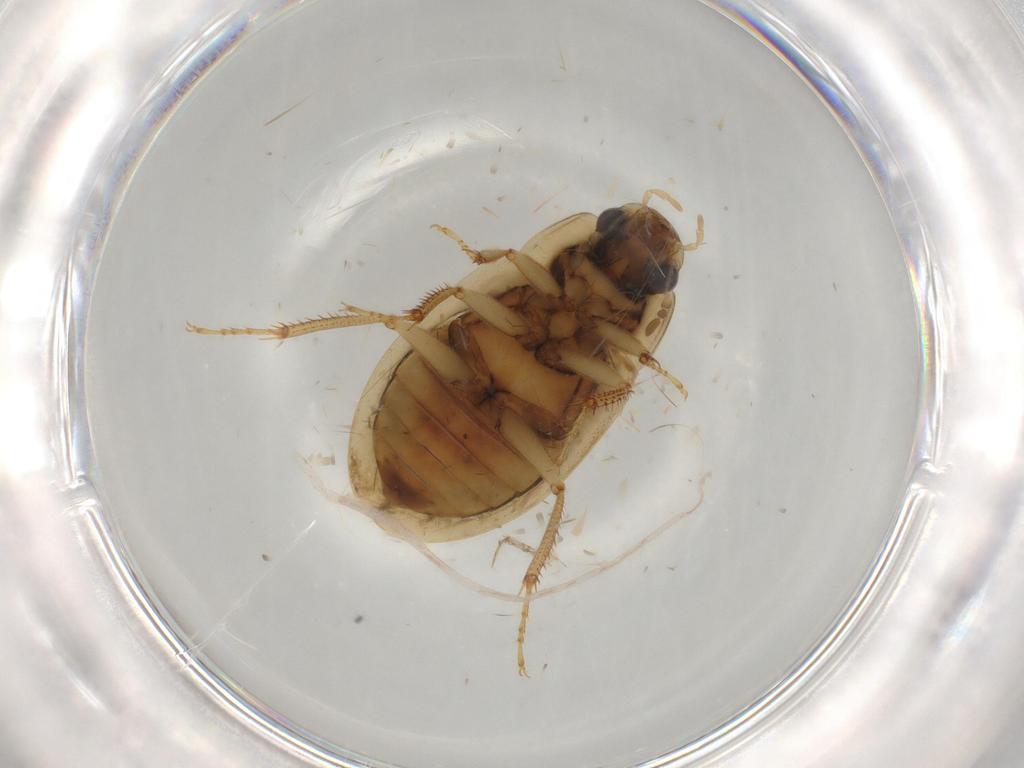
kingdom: Animalia
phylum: Arthropoda
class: Insecta
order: Coleoptera
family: Hydrophilidae
